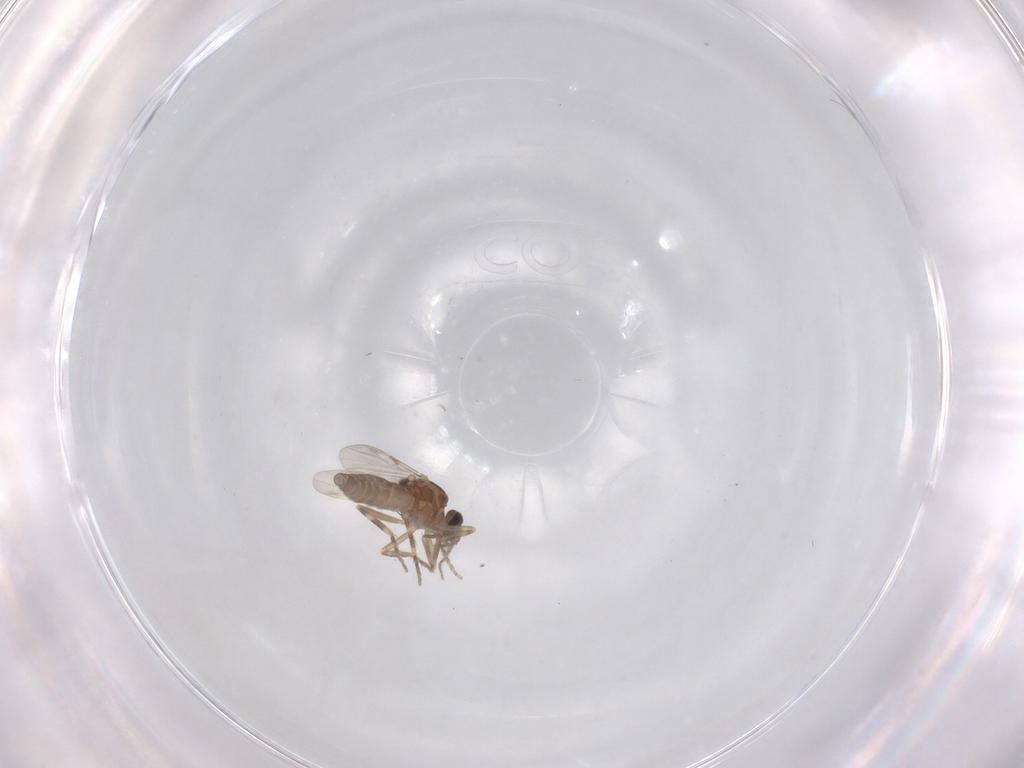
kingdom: Animalia
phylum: Arthropoda
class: Insecta
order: Diptera
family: Ceratopogonidae
